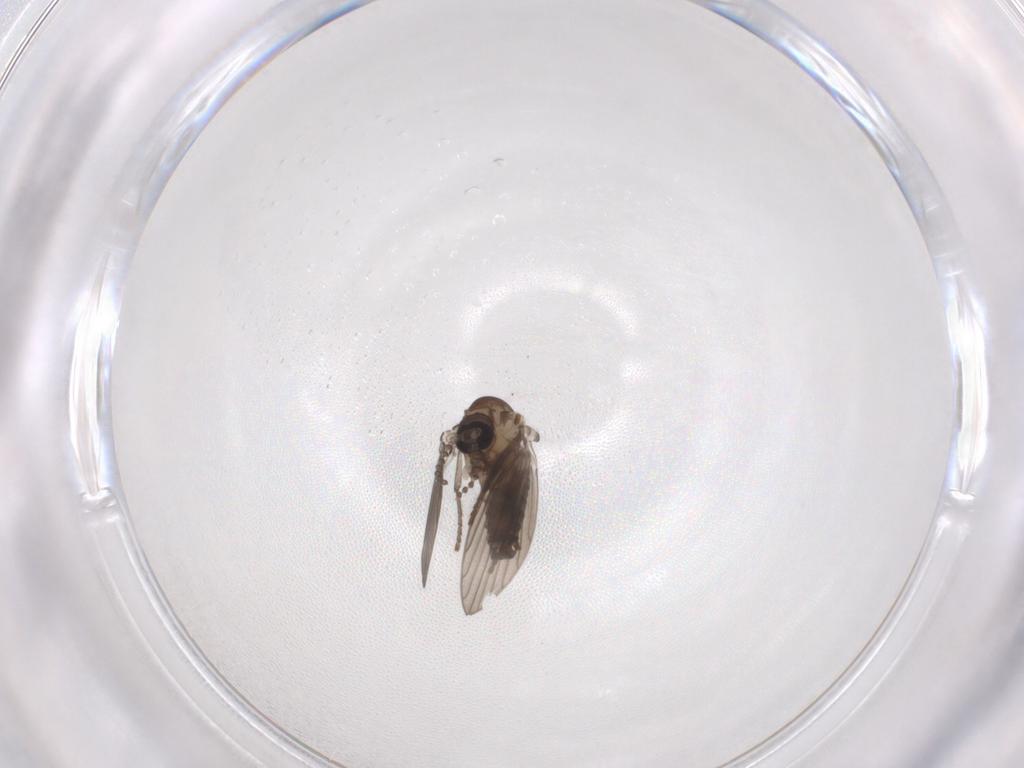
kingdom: Animalia
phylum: Arthropoda
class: Insecta
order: Diptera
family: Psychodidae
